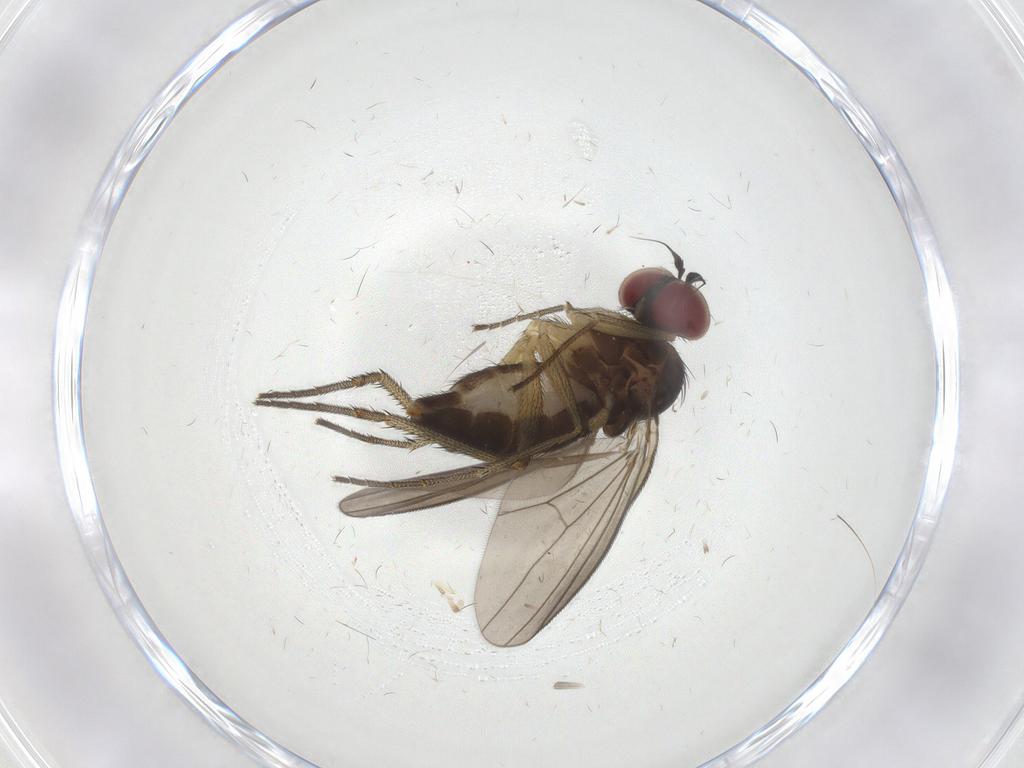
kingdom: Animalia
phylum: Arthropoda
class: Insecta
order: Diptera
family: Dolichopodidae
